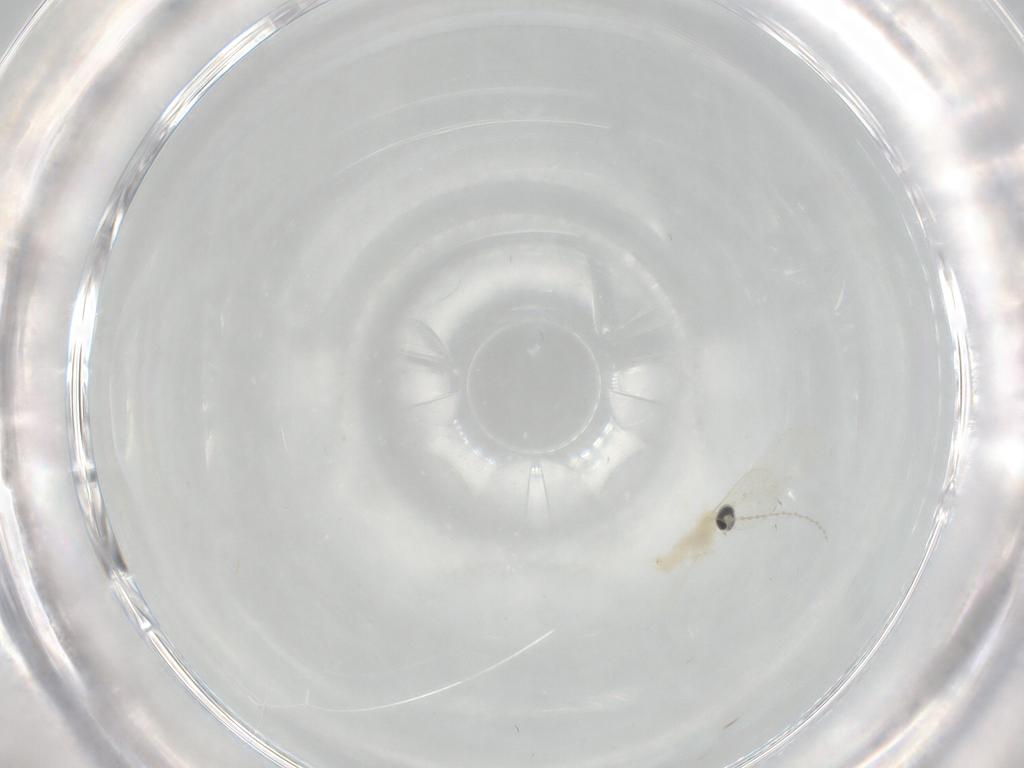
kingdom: Animalia
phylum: Arthropoda
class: Insecta
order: Diptera
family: Cecidomyiidae
